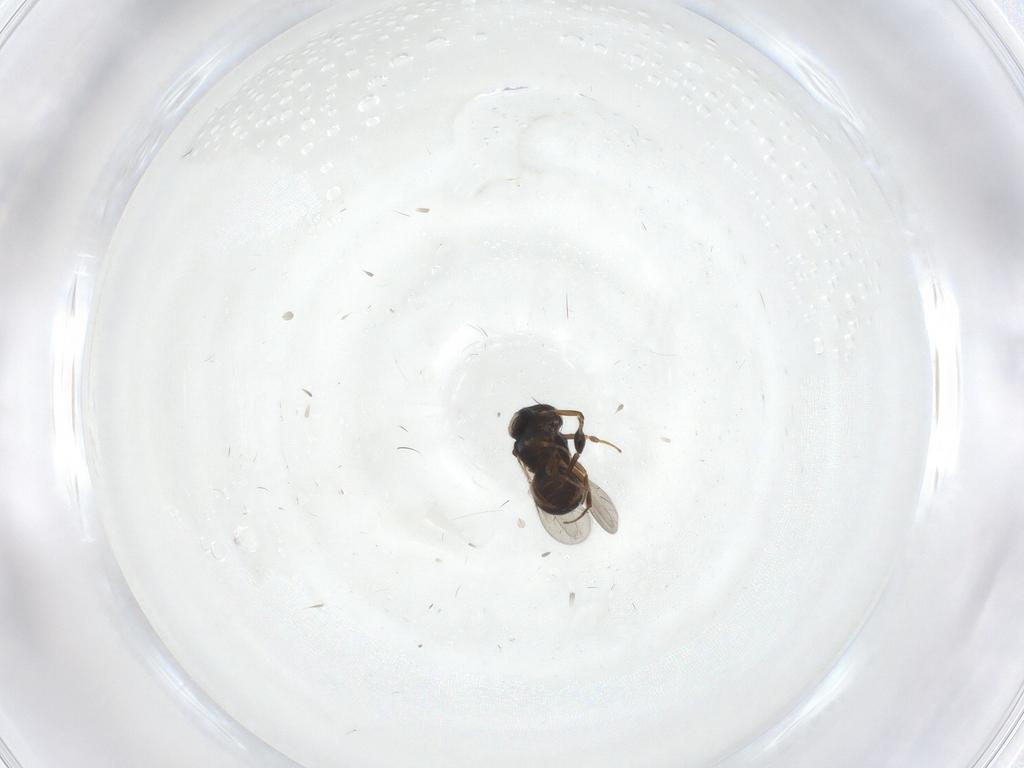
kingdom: Animalia
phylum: Arthropoda
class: Insecta
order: Hymenoptera
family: Scelionidae
